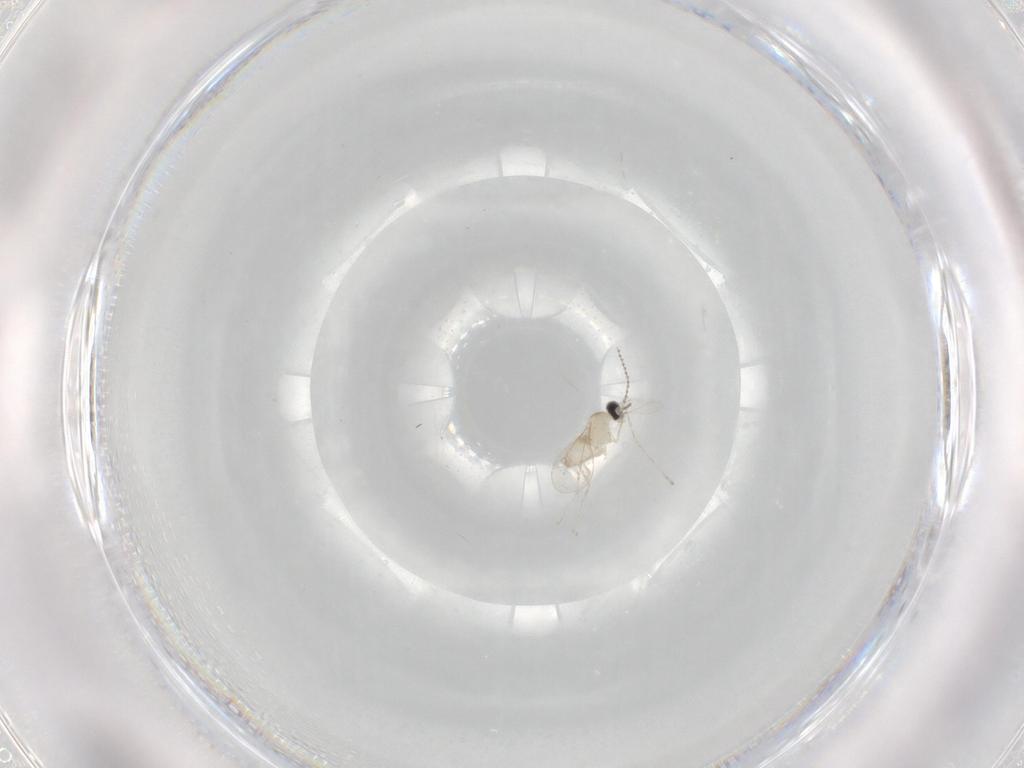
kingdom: Animalia
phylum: Arthropoda
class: Insecta
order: Diptera
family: Cecidomyiidae
